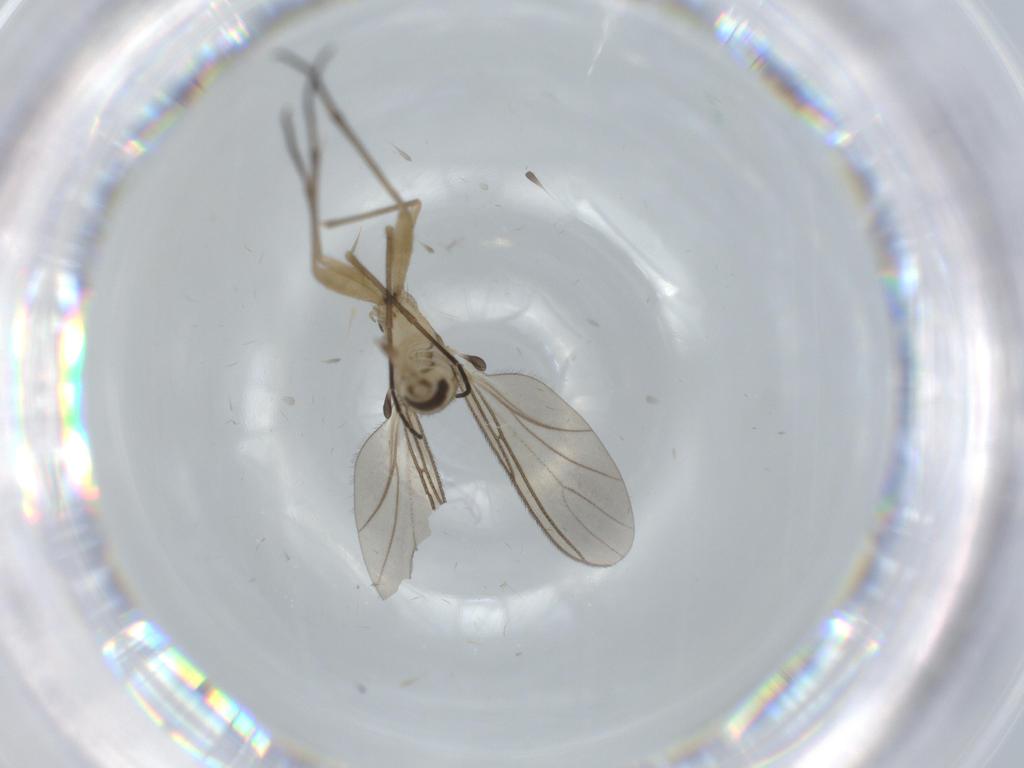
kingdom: Animalia
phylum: Arthropoda
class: Insecta
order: Diptera
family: Sciaridae
